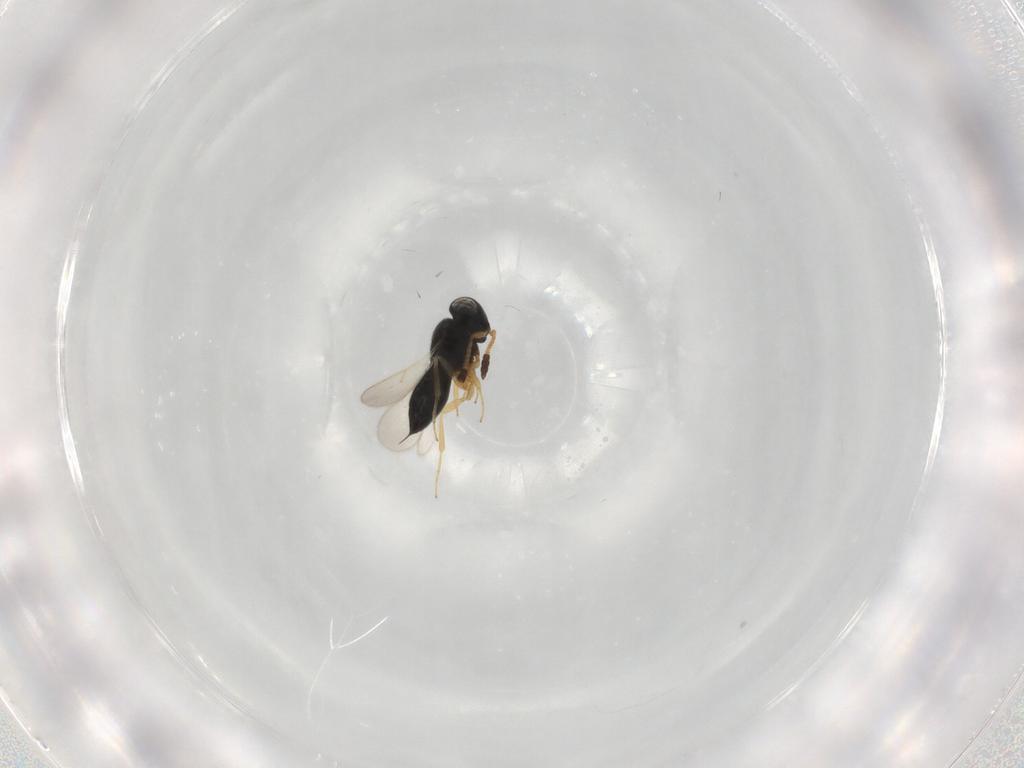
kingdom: Animalia
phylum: Arthropoda
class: Insecta
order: Hymenoptera
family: Scelionidae
